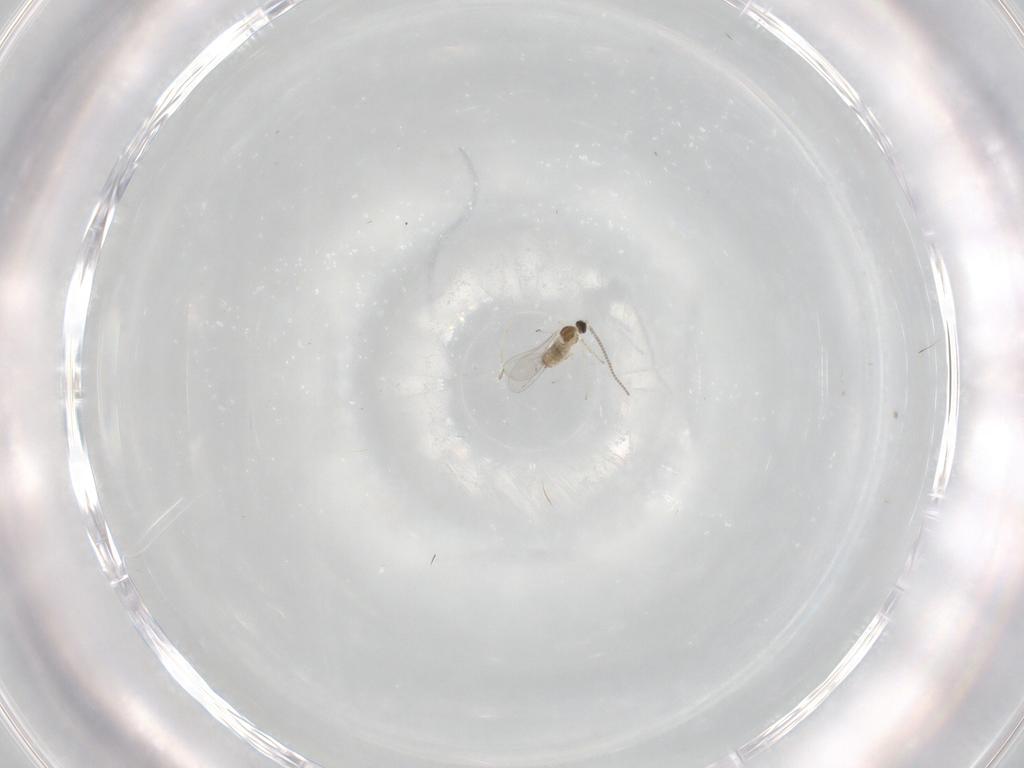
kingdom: Animalia
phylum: Arthropoda
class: Insecta
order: Diptera
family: Cecidomyiidae
